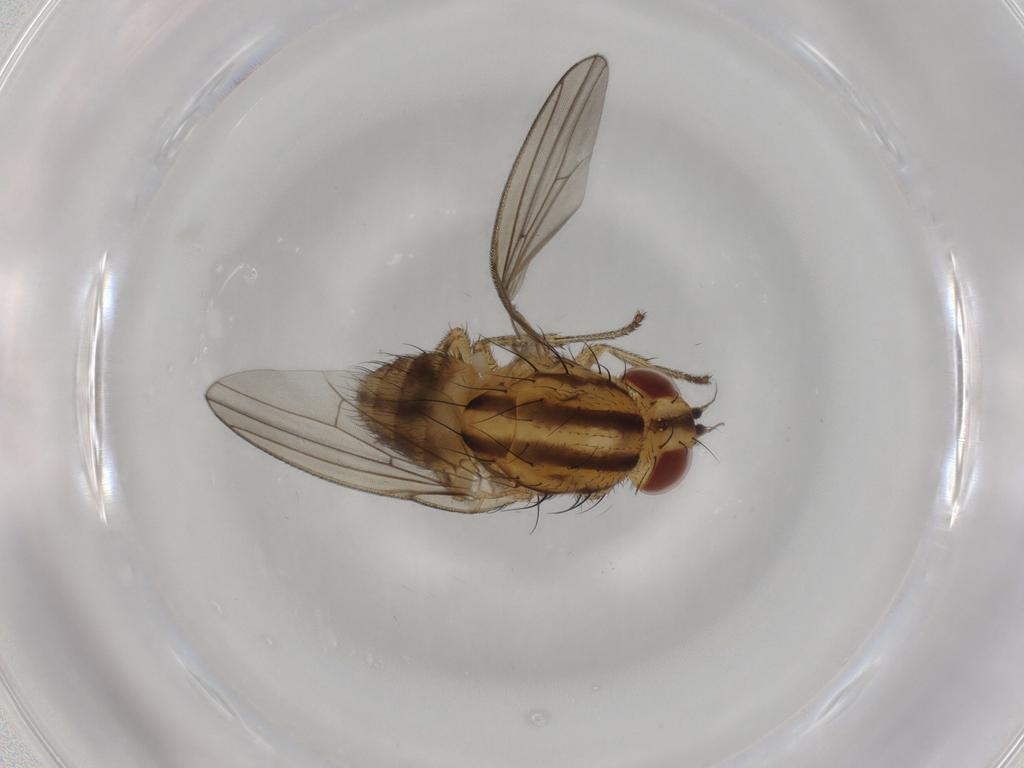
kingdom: Animalia
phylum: Arthropoda
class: Insecta
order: Diptera
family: Dolichopodidae
